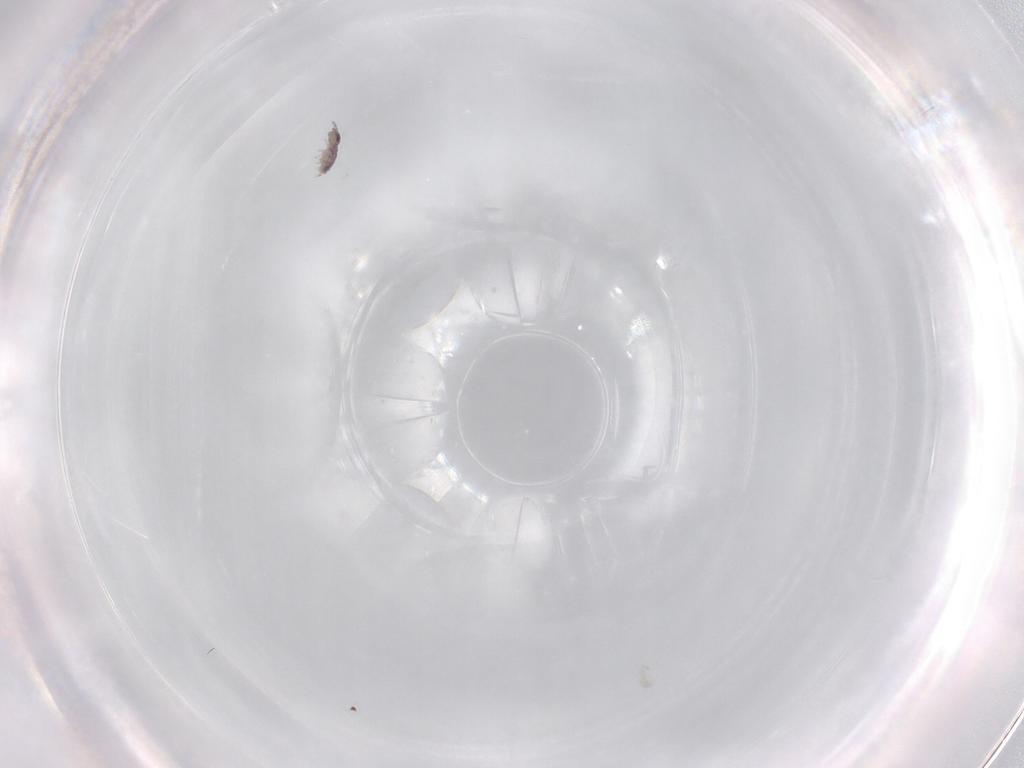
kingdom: Animalia
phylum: Arthropoda
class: Collembola
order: Poduromorpha
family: Hypogastruridae
